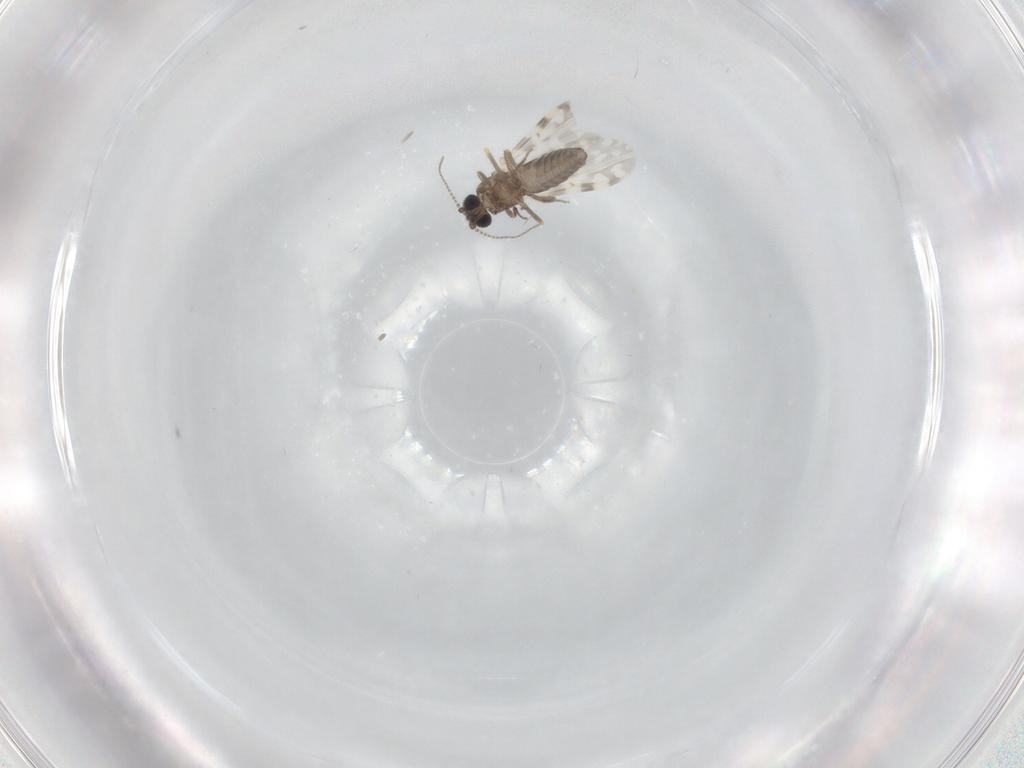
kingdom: Animalia
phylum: Arthropoda
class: Insecta
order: Diptera
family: Ceratopogonidae
